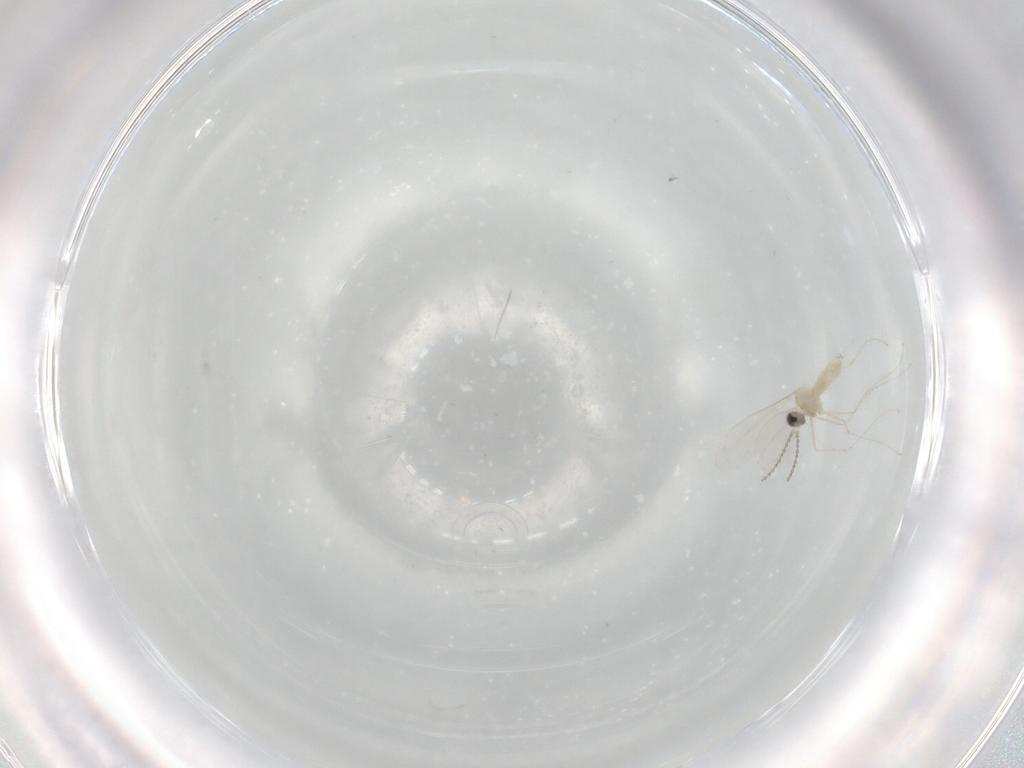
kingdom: Animalia
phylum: Arthropoda
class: Insecta
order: Diptera
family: Cecidomyiidae
